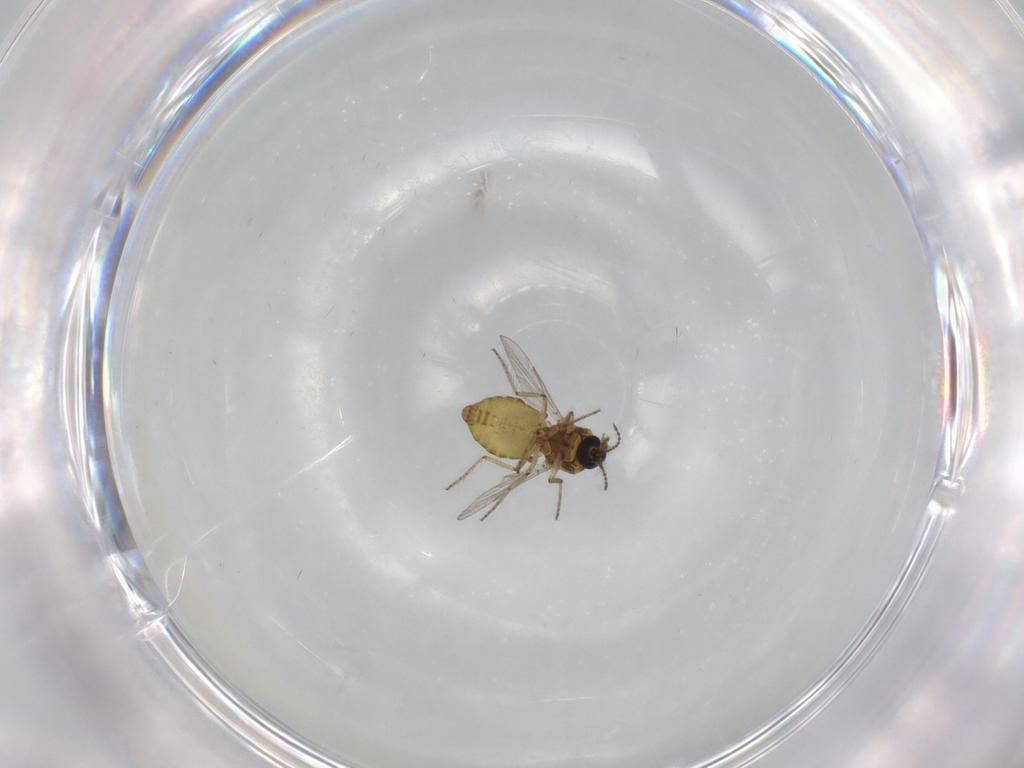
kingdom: Animalia
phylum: Arthropoda
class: Insecta
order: Diptera
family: Ceratopogonidae
